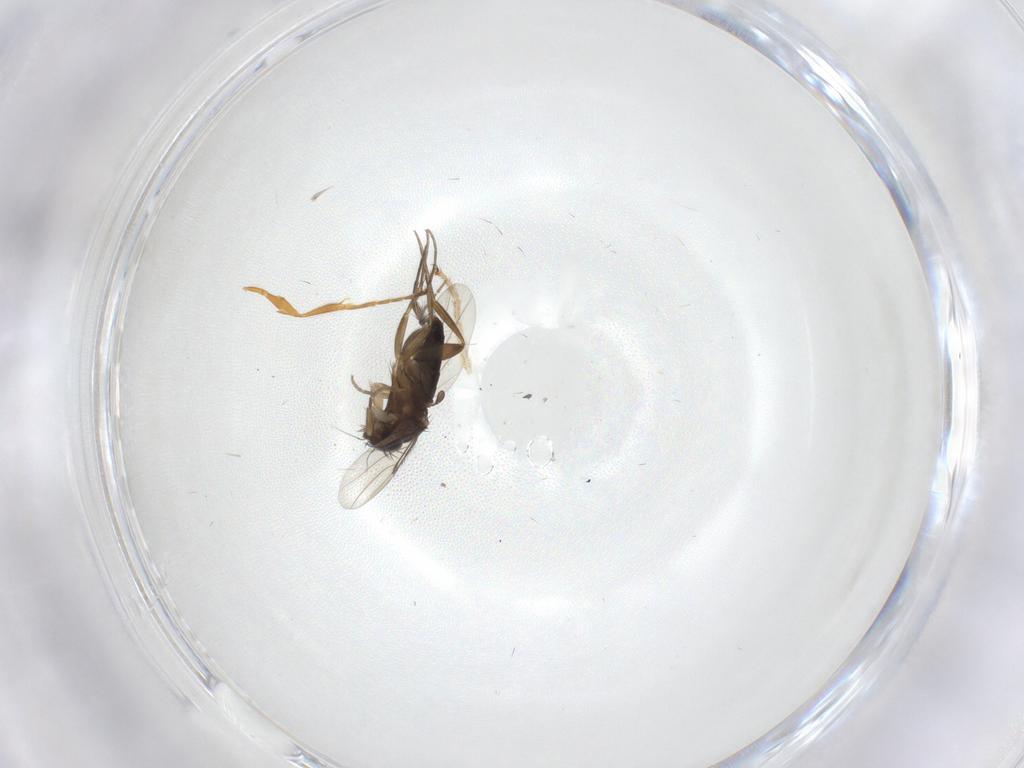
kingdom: Animalia
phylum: Arthropoda
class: Insecta
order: Diptera
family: Phoridae
